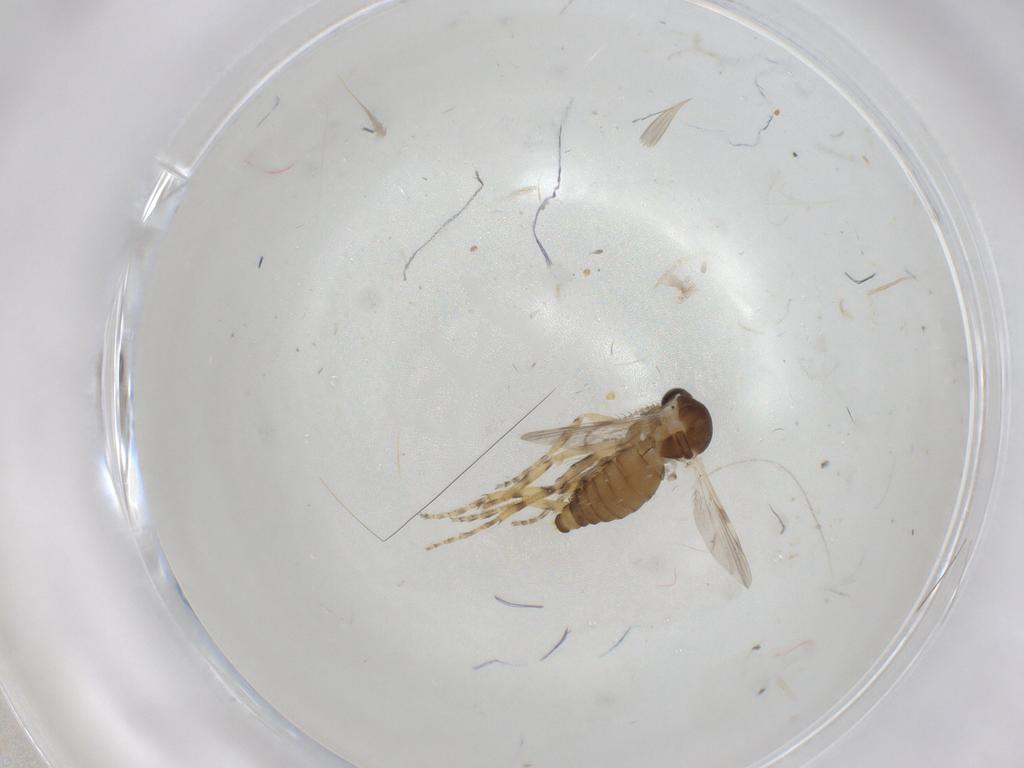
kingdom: Animalia
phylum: Arthropoda
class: Insecta
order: Diptera
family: Ceratopogonidae
